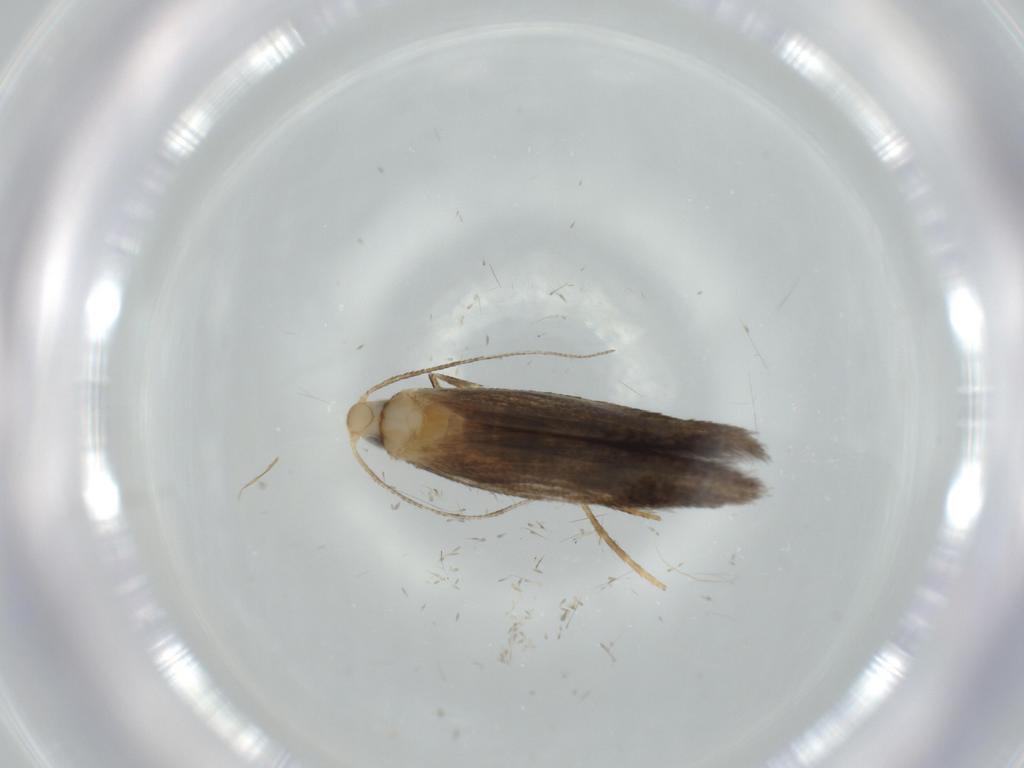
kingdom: Animalia
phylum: Arthropoda
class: Insecta
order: Lepidoptera
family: Tischeriidae
